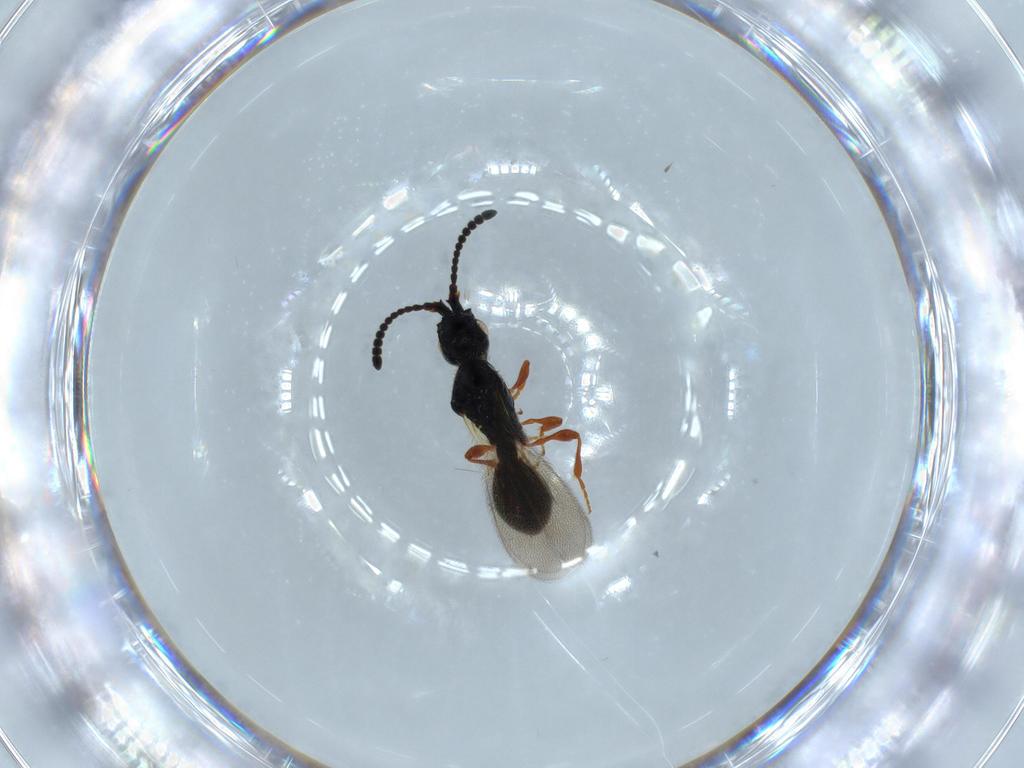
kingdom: Animalia
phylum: Arthropoda
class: Insecta
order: Hymenoptera
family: Diapriidae
